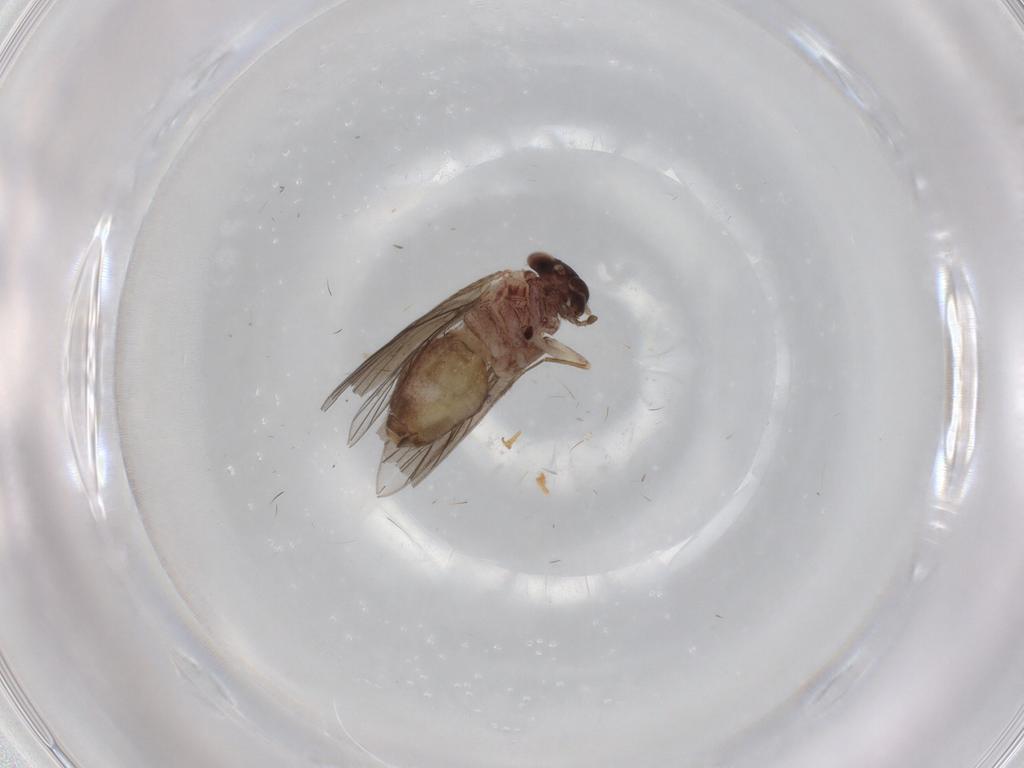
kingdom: Animalia
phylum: Arthropoda
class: Insecta
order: Psocodea
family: Lepidopsocidae
